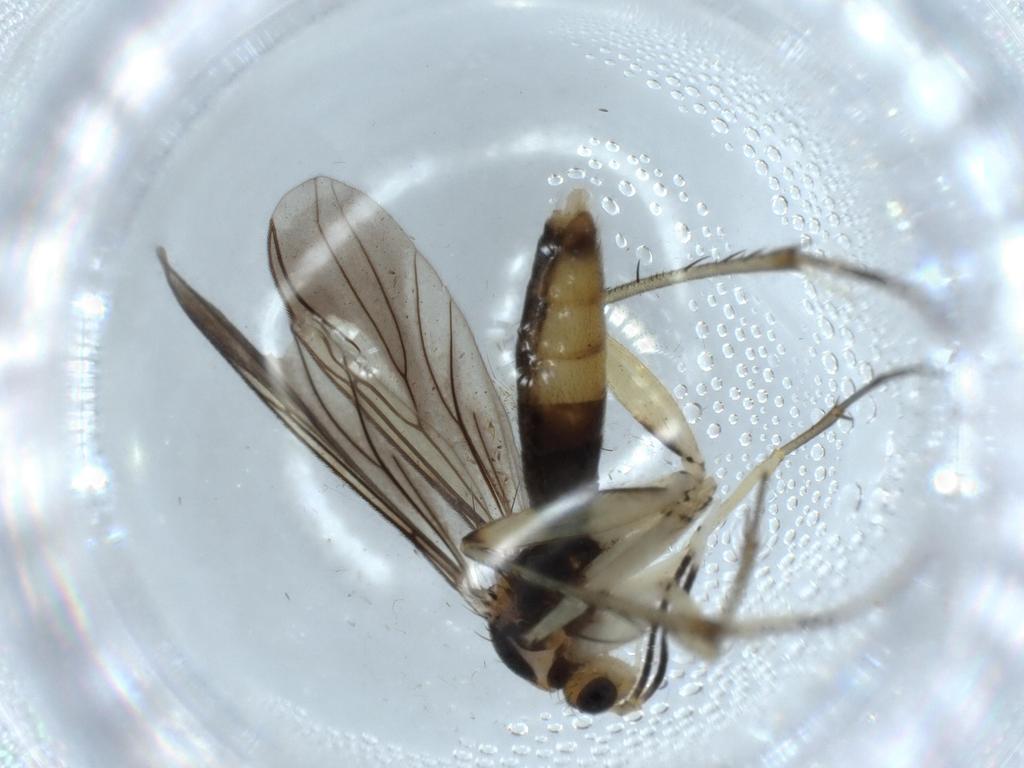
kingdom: Animalia
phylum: Arthropoda
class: Insecta
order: Diptera
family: Mycetophilidae
